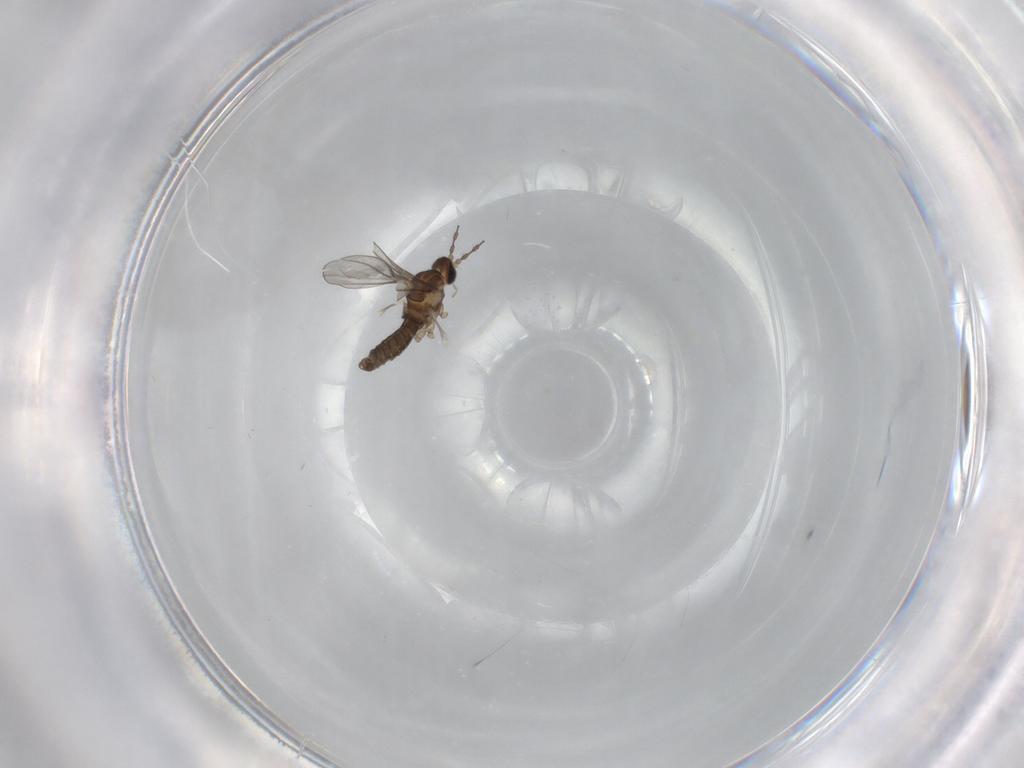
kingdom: Animalia
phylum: Arthropoda
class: Insecta
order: Diptera
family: Cecidomyiidae
